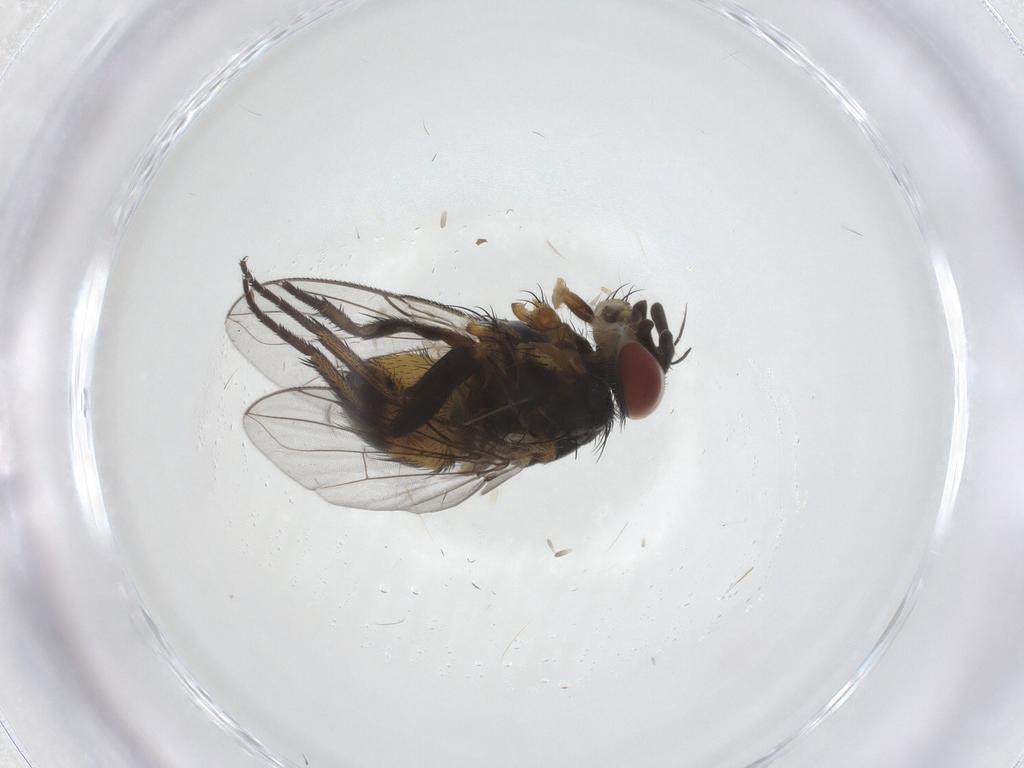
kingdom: Animalia
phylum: Arthropoda
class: Insecta
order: Diptera
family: Tachinidae
